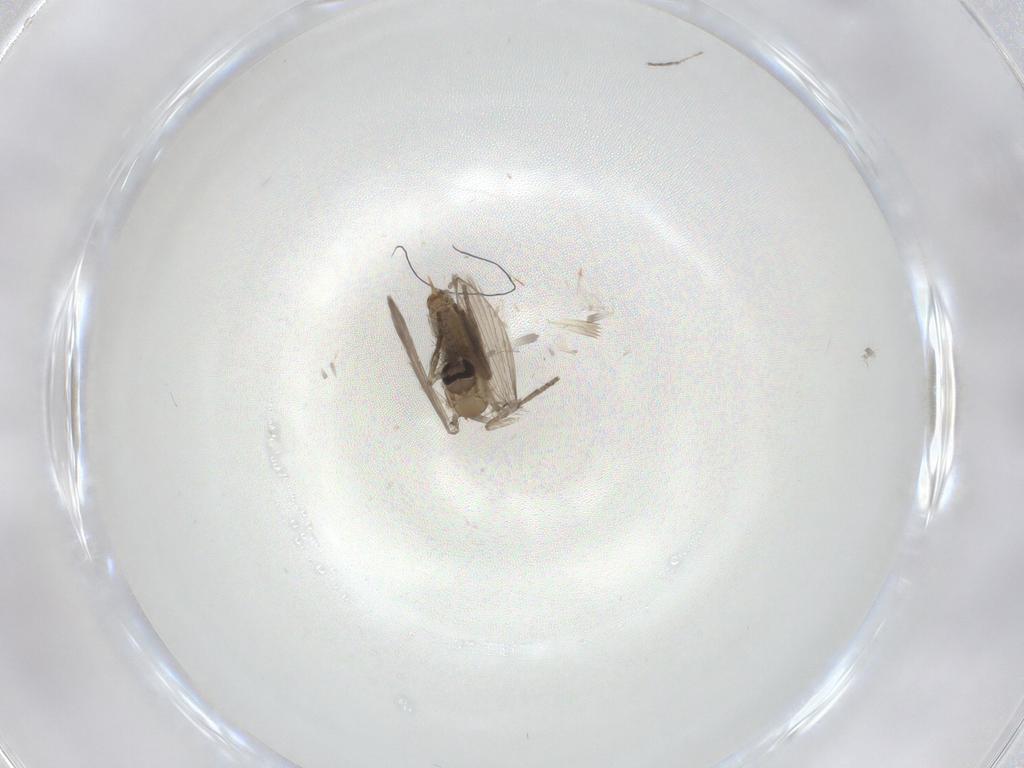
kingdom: Animalia
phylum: Arthropoda
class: Insecta
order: Diptera
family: Psychodidae
